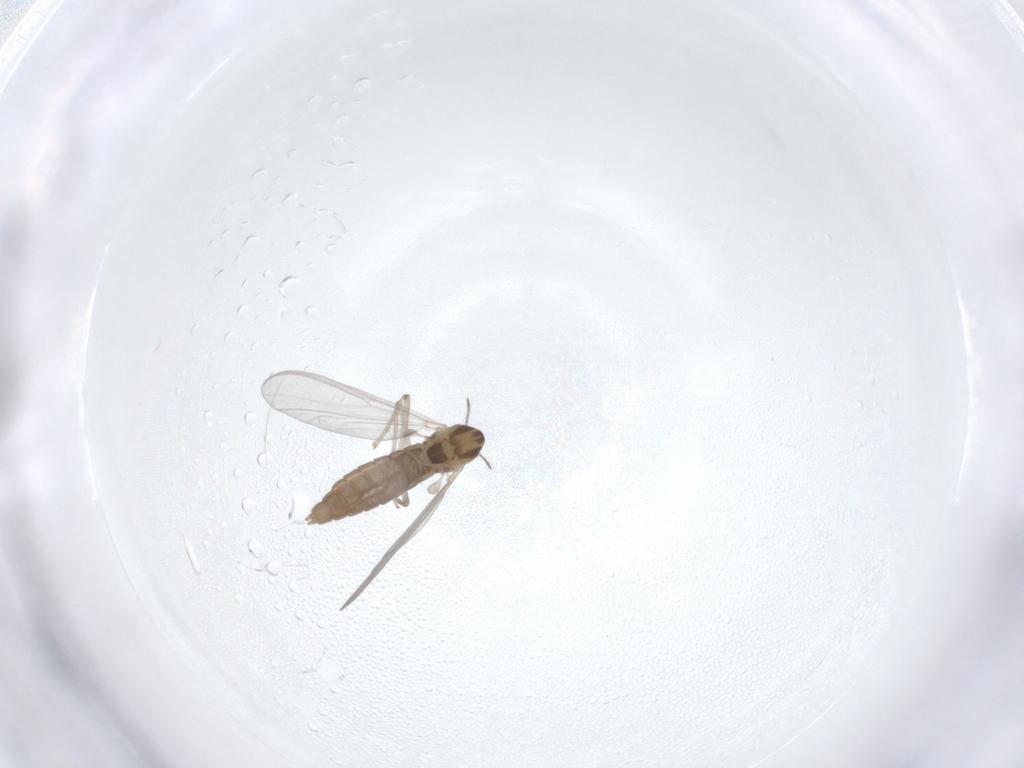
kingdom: Animalia
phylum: Arthropoda
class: Insecta
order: Diptera
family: Chironomidae
